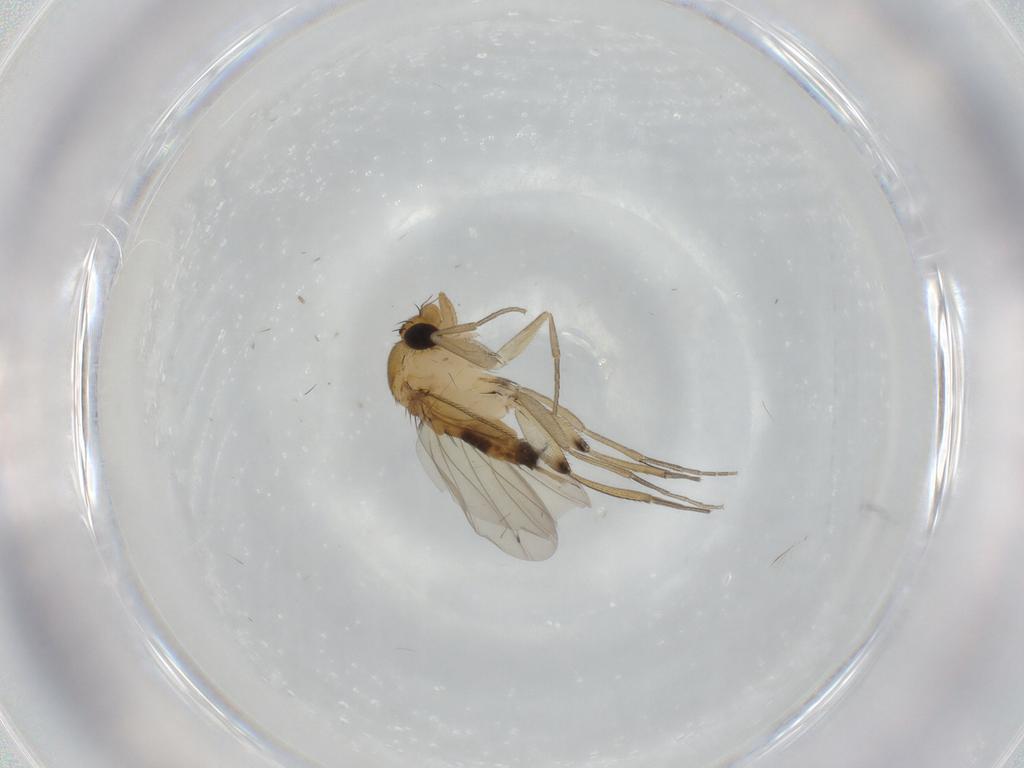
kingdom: Animalia
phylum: Arthropoda
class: Insecta
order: Diptera
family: Phoridae
